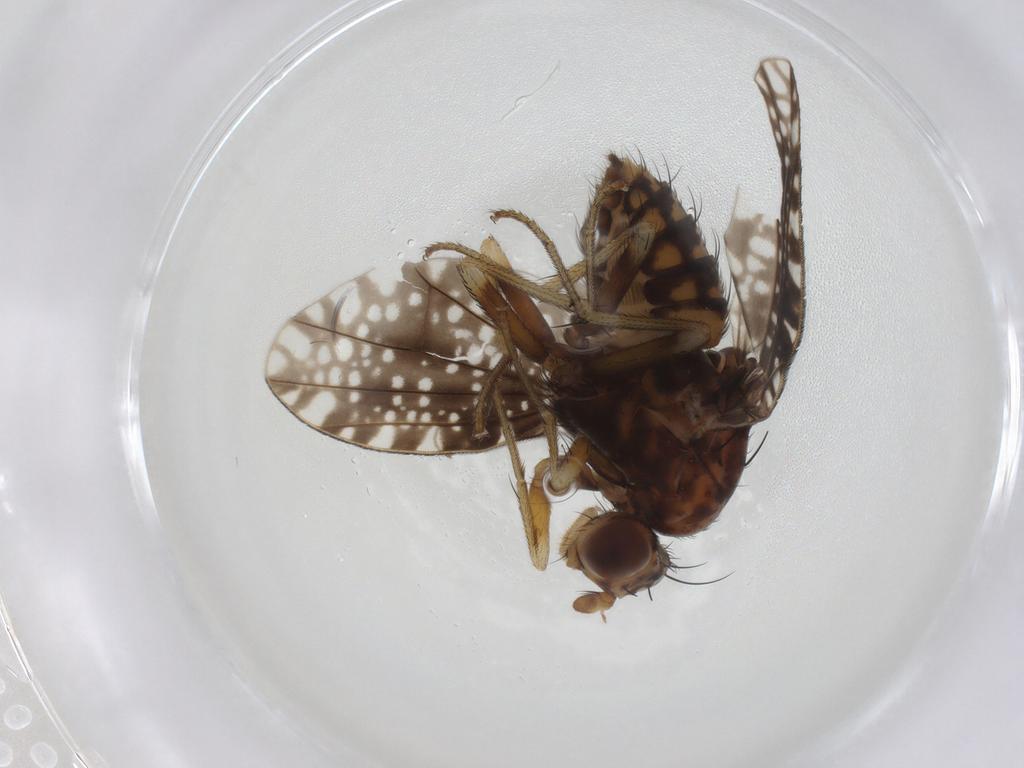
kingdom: Animalia
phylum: Arthropoda
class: Insecta
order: Diptera
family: Lauxaniidae
